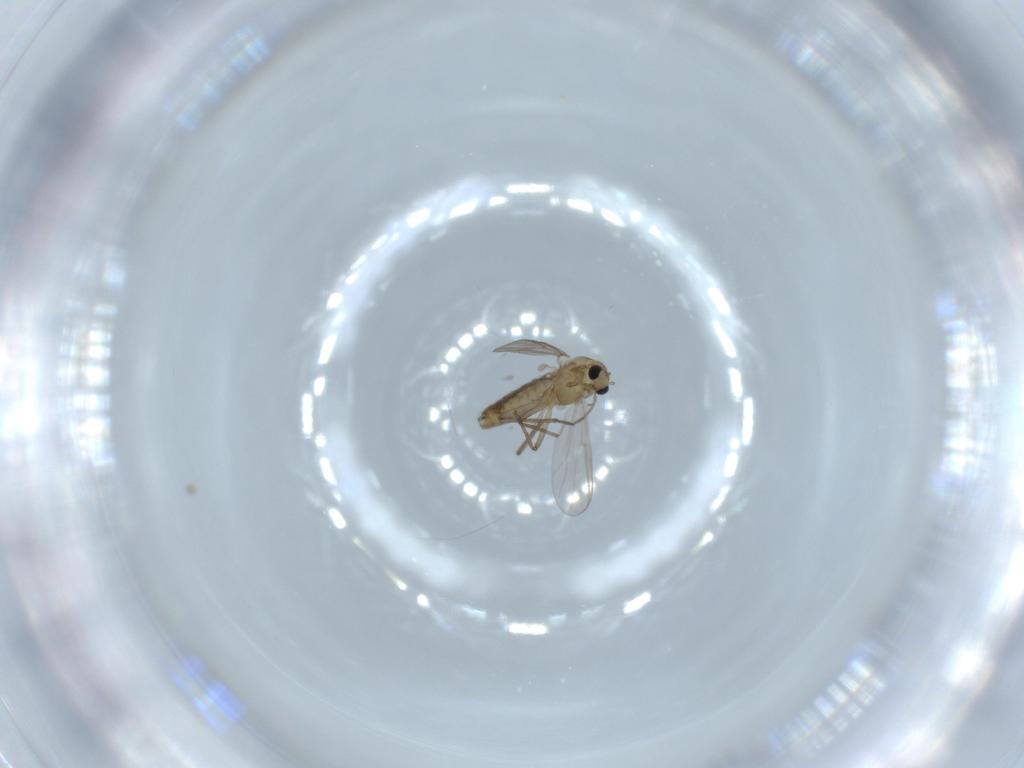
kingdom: Animalia
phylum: Arthropoda
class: Insecta
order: Diptera
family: Chironomidae
